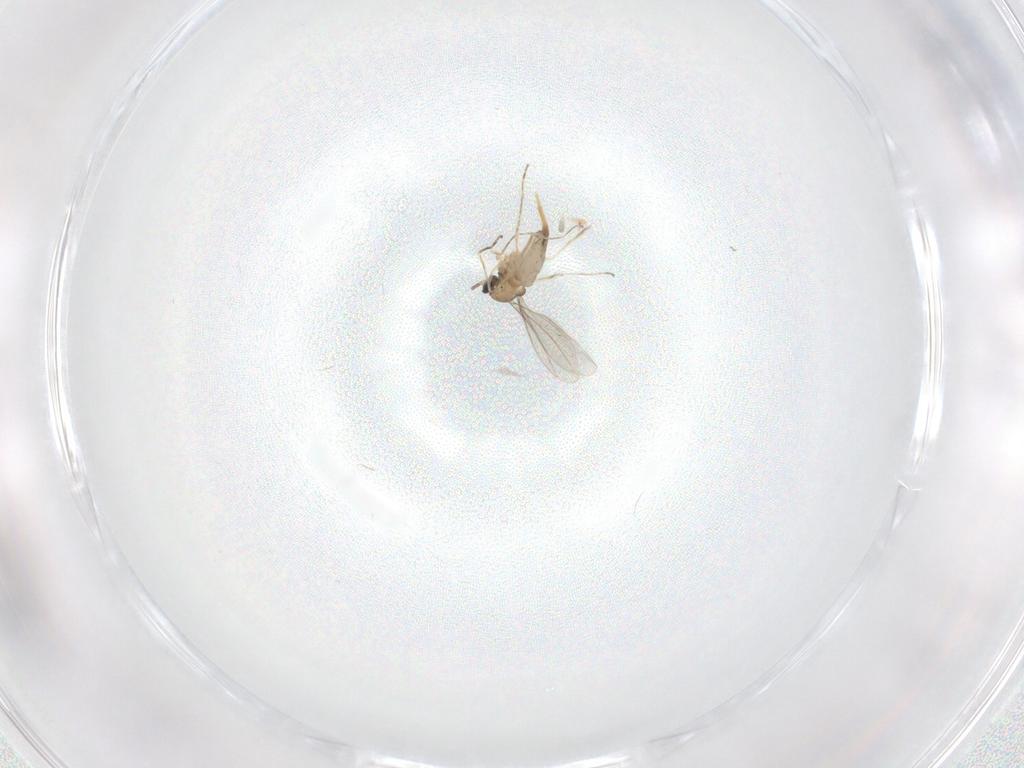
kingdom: Animalia
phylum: Arthropoda
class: Insecta
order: Diptera
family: Cecidomyiidae
